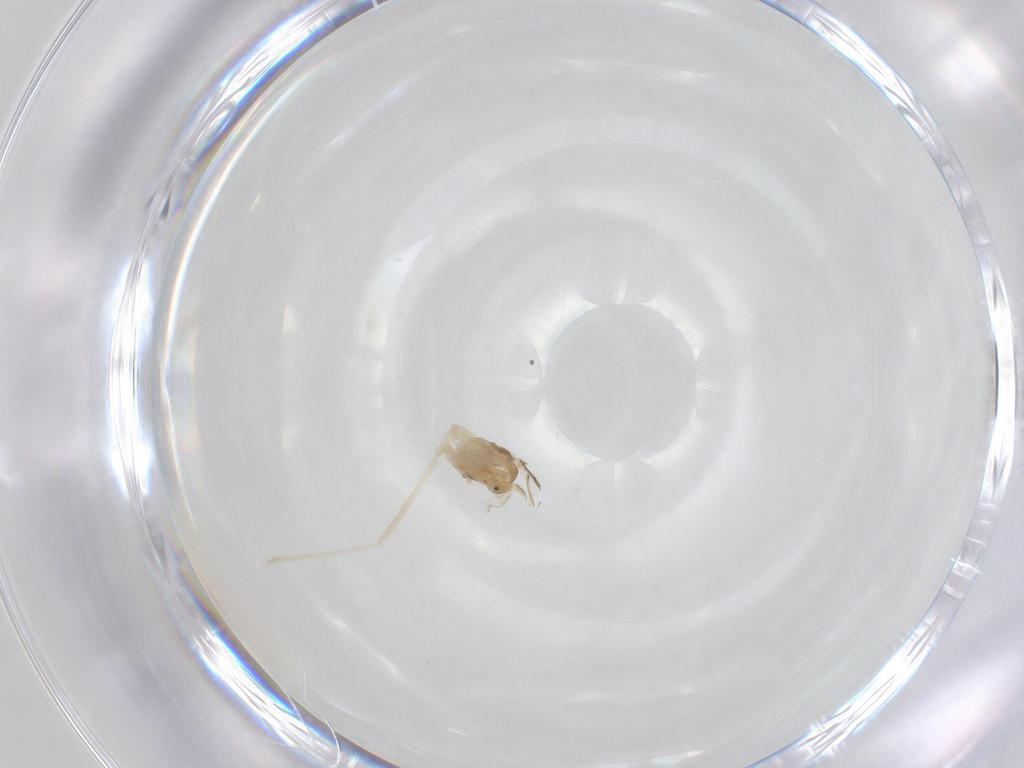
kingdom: Animalia
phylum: Arthropoda
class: Insecta
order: Diptera
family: Cecidomyiidae
